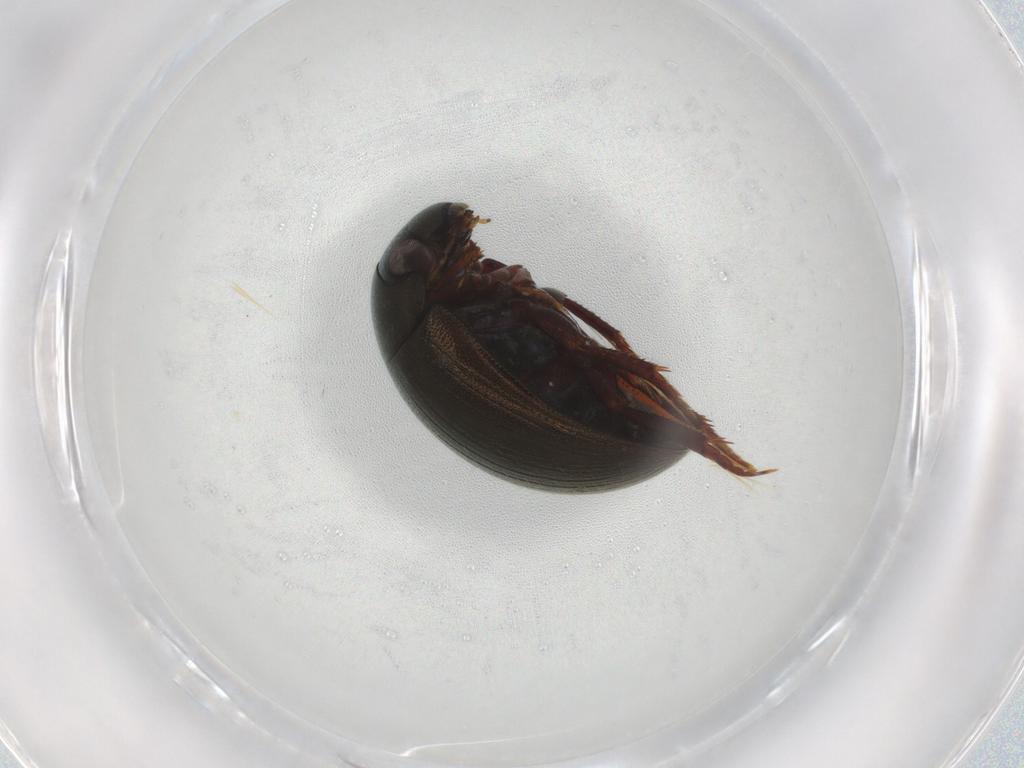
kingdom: Animalia
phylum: Arthropoda
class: Insecta
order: Coleoptera
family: Hydrophilidae
